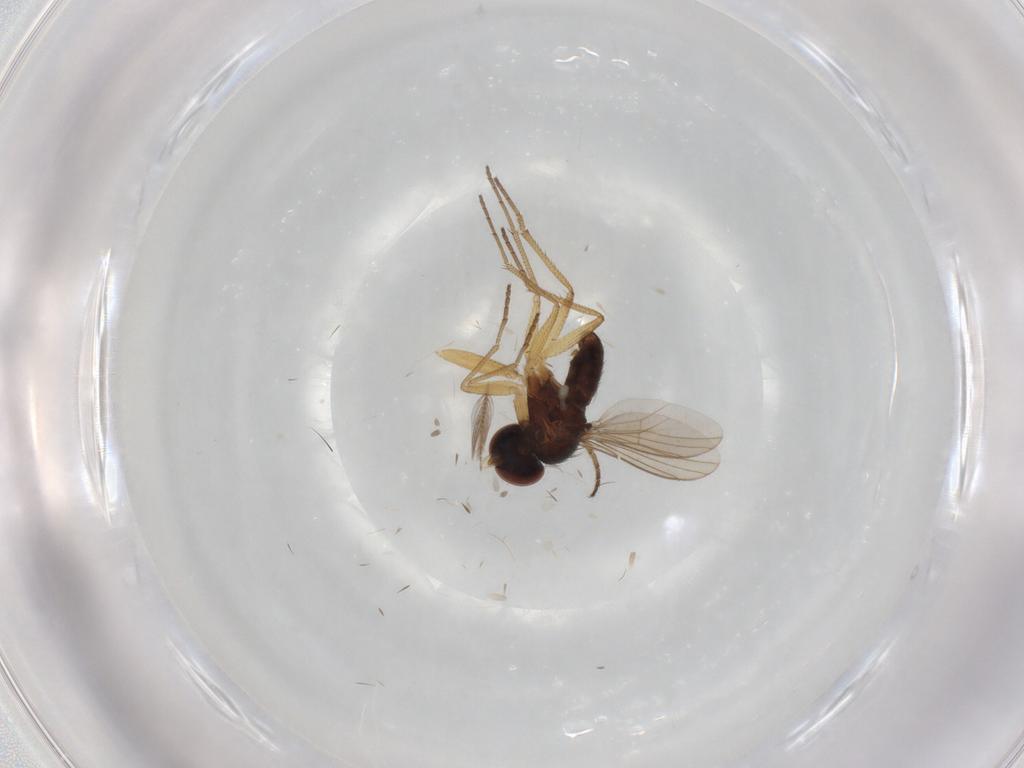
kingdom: Animalia
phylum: Arthropoda
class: Insecta
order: Diptera
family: Dolichopodidae
